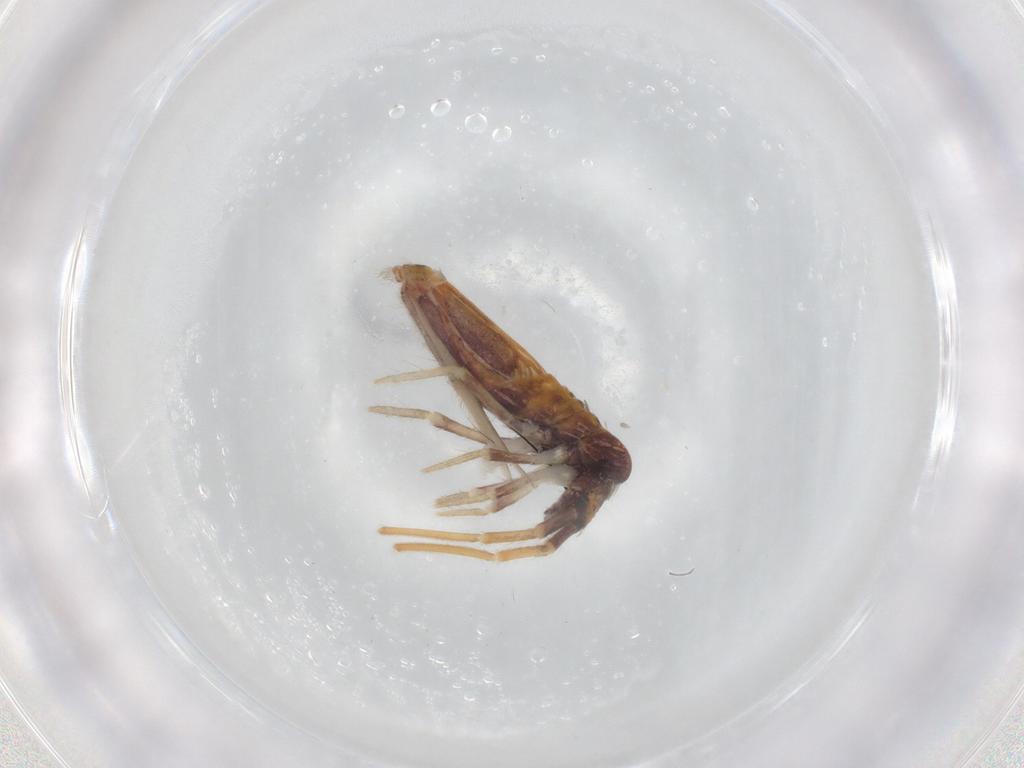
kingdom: Animalia
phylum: Arthropoda
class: Collembola
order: Entomobryomorpha
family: Entomobryidae
